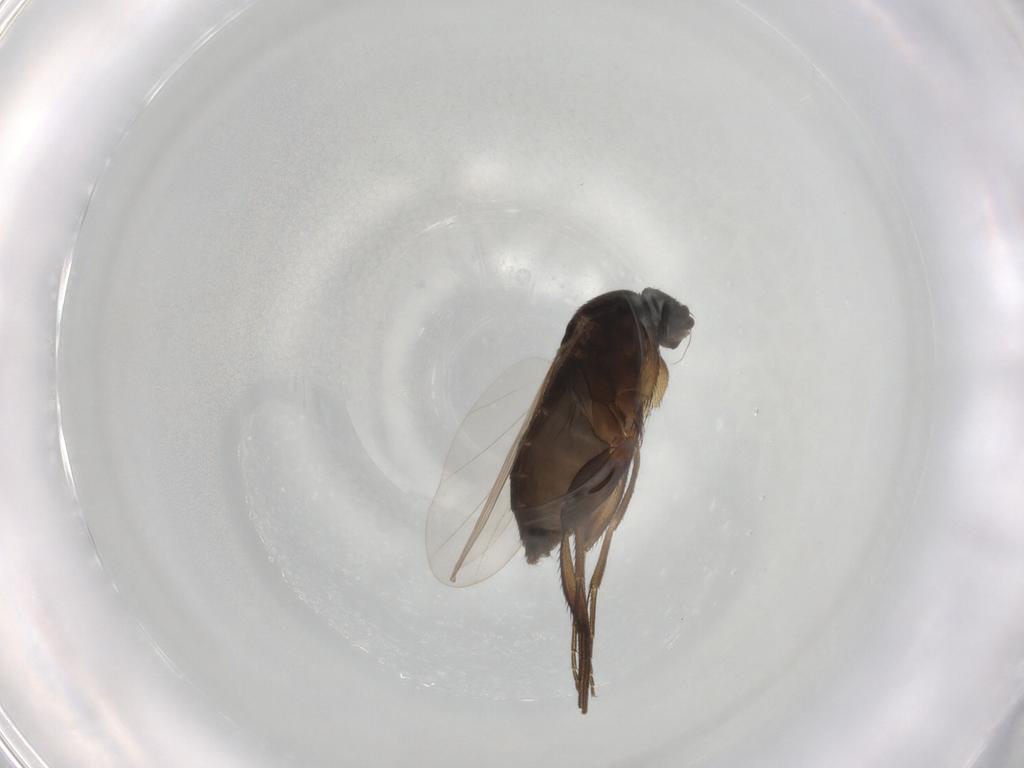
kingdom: Animalia
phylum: Arthropoda
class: Insecta
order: Diptera
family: Phoridae
